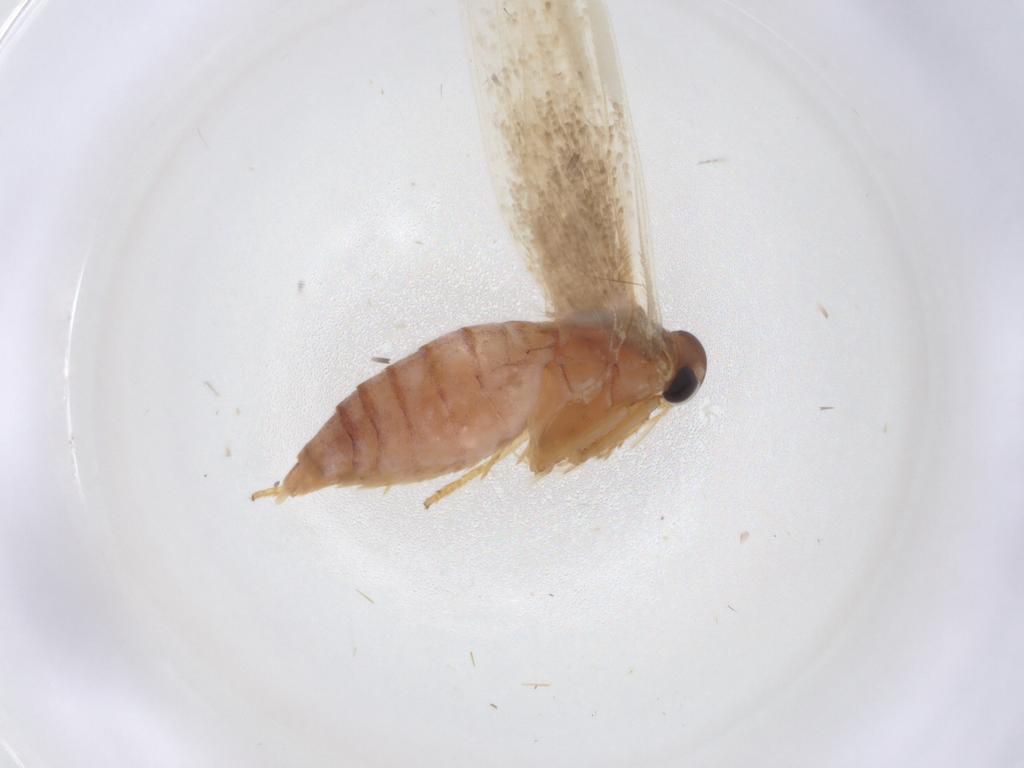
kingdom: Animalia
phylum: Arthropoda
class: Insecta
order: Lepidoptera
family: Blastobasidae
